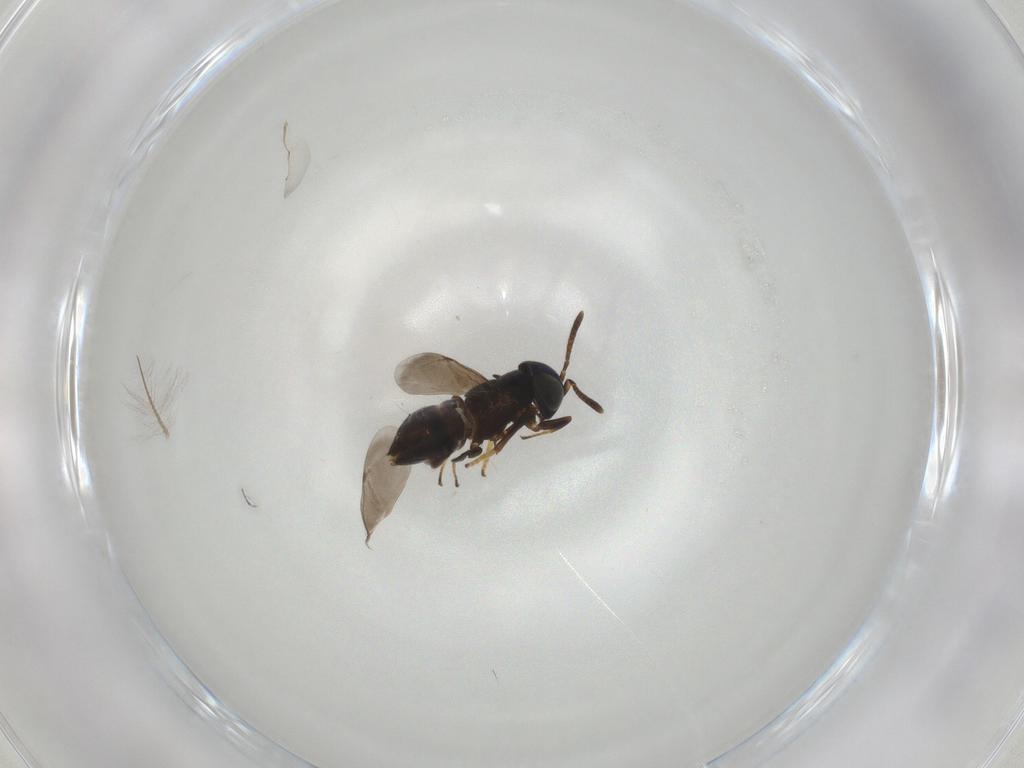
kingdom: Animalia
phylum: Arthropoda
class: Insecta
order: Hymenoptera
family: Encyrtidae
